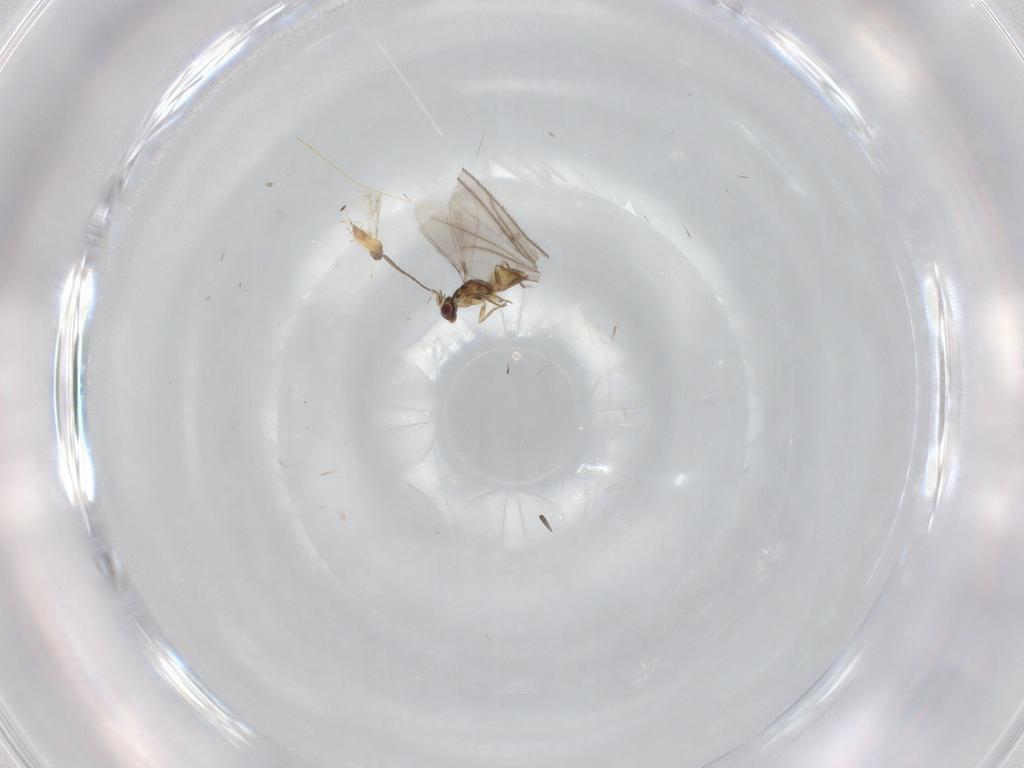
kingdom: Animalia
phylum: Arthropoda
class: Insecta
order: Hymenoptera
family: Mymaridae
